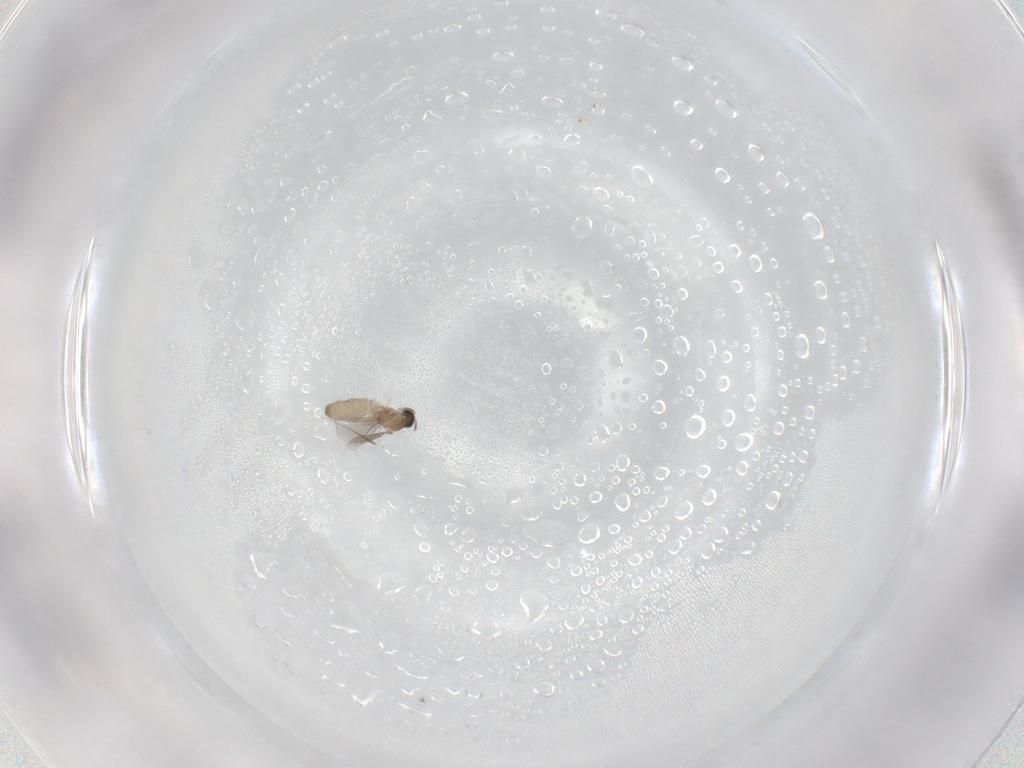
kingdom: Animalia
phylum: Arthropoda
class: Insecta
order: Diptera
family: Cecidomyiidae
